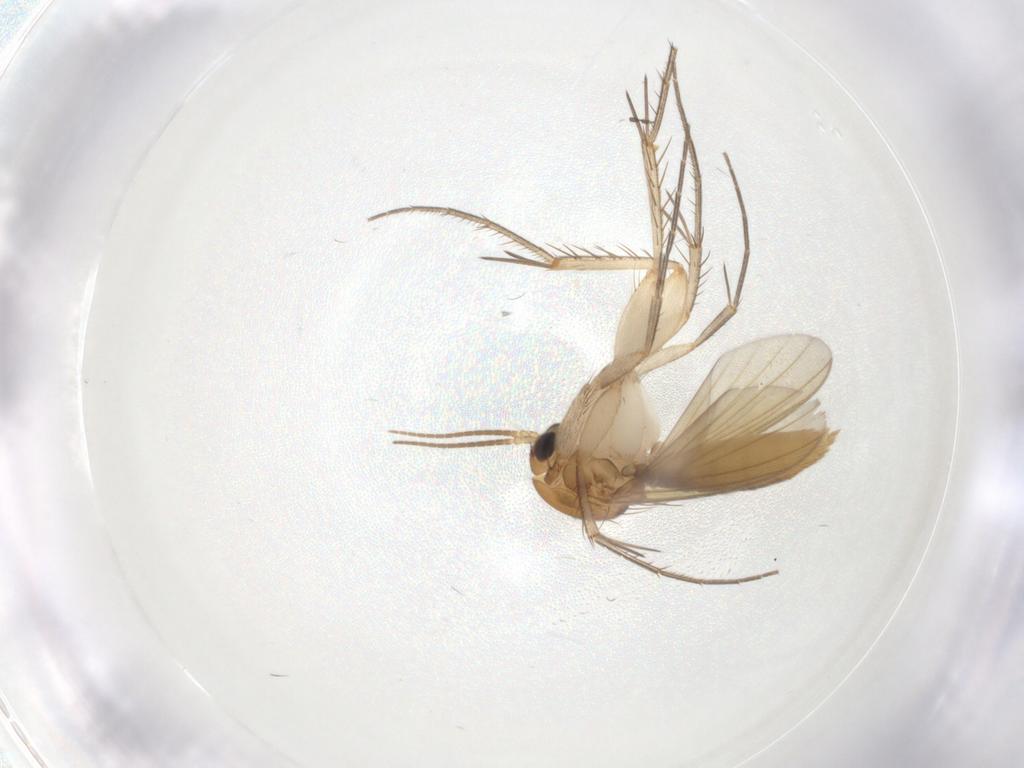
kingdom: Animalia
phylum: Arthropoda
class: Insecta
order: Diptera
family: Mycetophilidae
